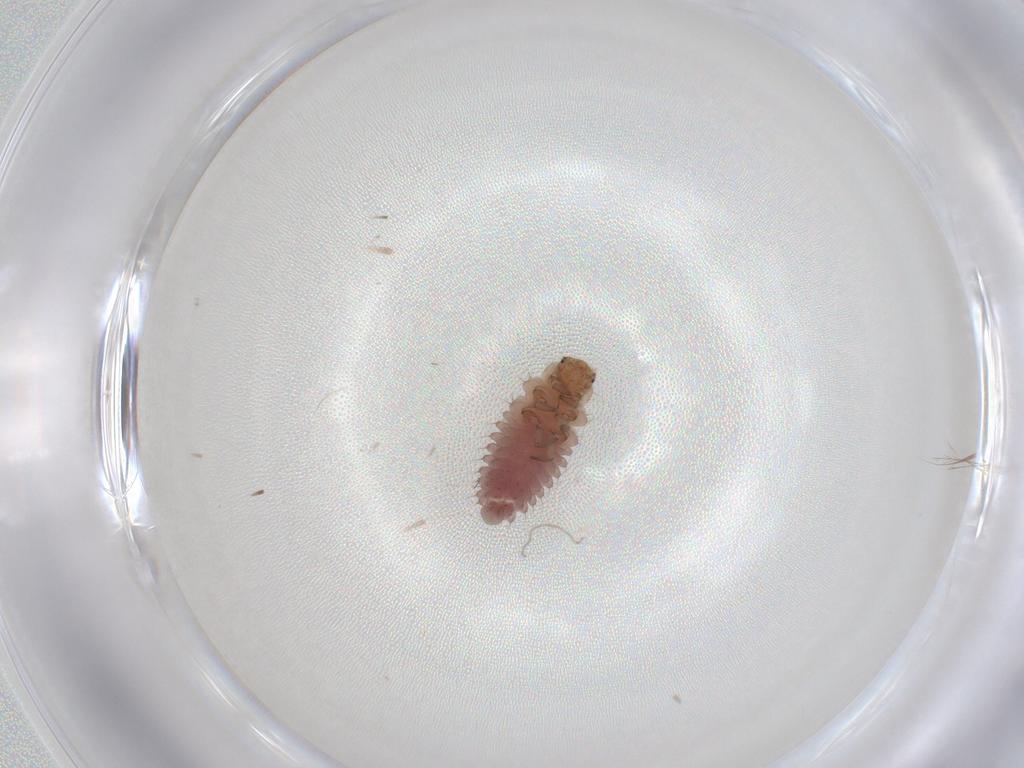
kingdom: Animalia
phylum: Arthropoda
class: Insecta
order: Coleoptera
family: Coccinellidae
